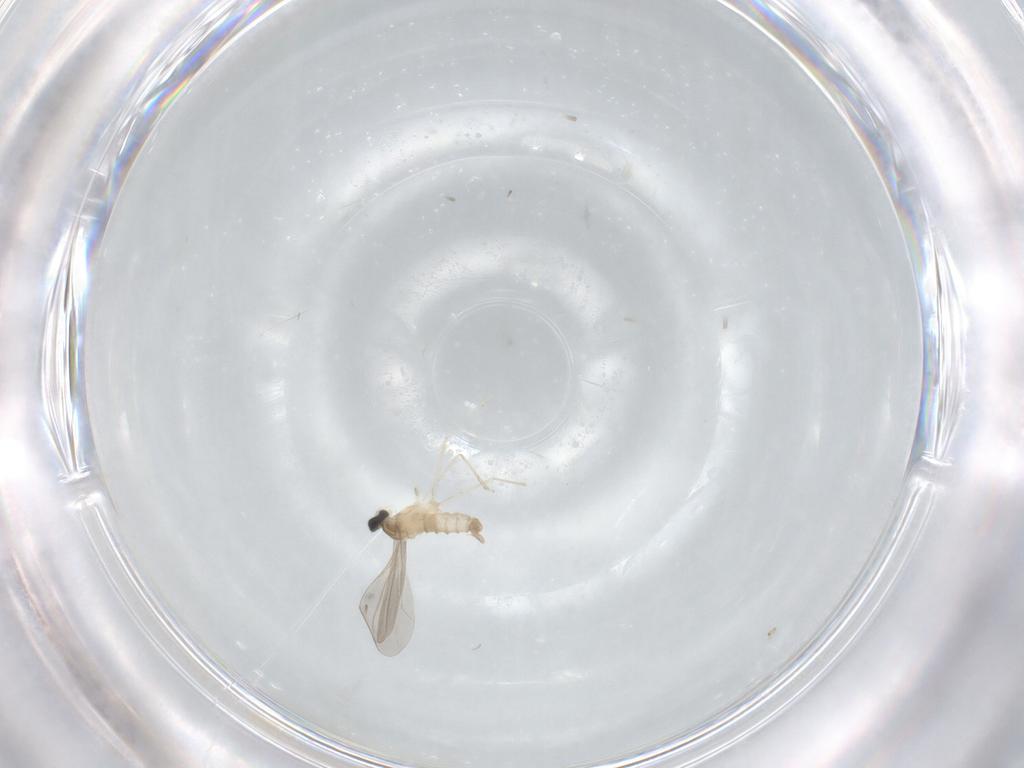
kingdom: Animalia
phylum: Arthropoda
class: Insecta
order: Diptera
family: Cecidomyiidae
